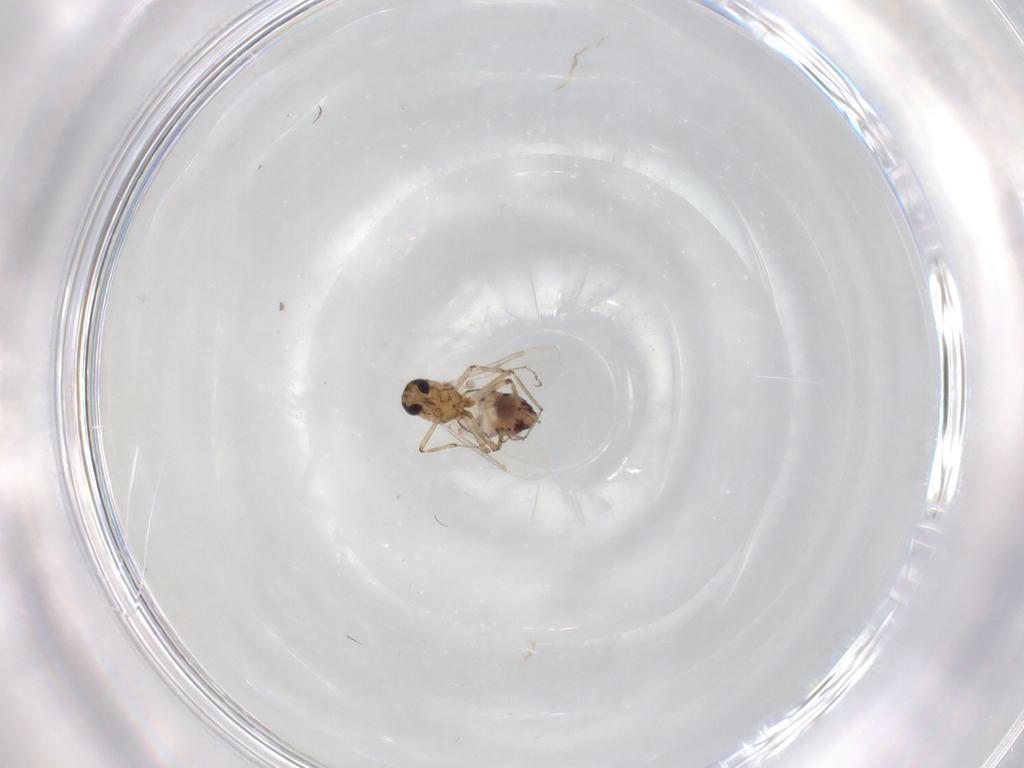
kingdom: Animalia
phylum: Arthropoda
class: Insecta
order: Diptera
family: Ceratopogonidae
